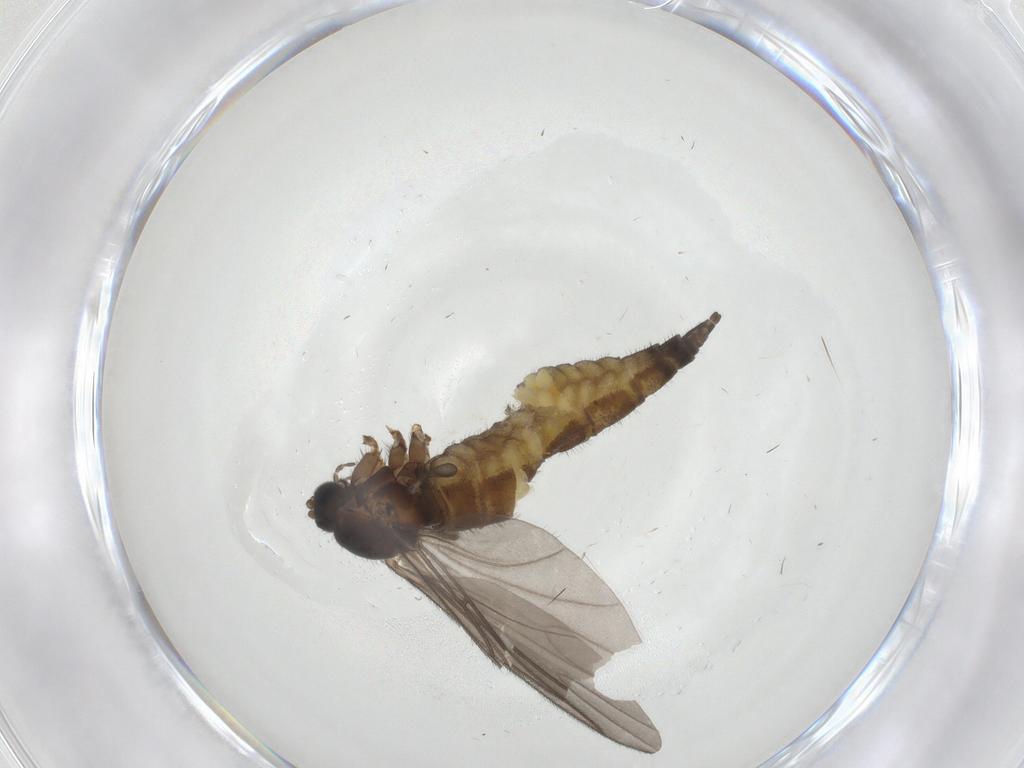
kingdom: Animalia
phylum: Arthropoda
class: Insecta
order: Diptera
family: Sciaridae
